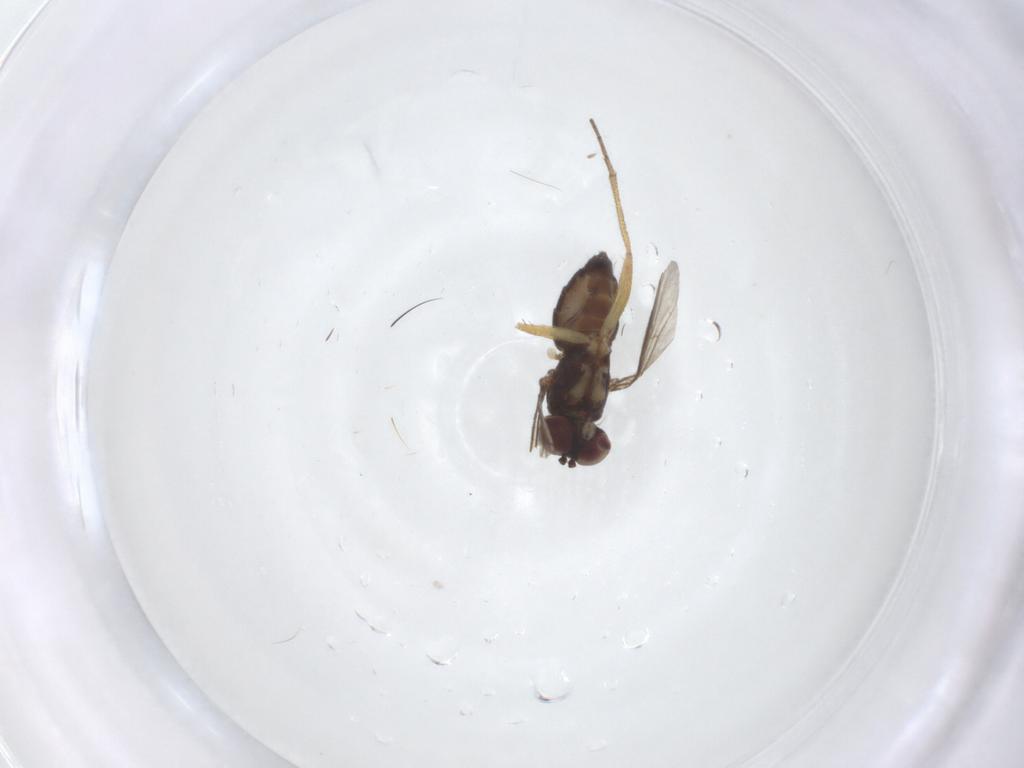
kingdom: Animalia
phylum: Arthropoda
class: Insecta
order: Diptera
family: Dolichopodidae
